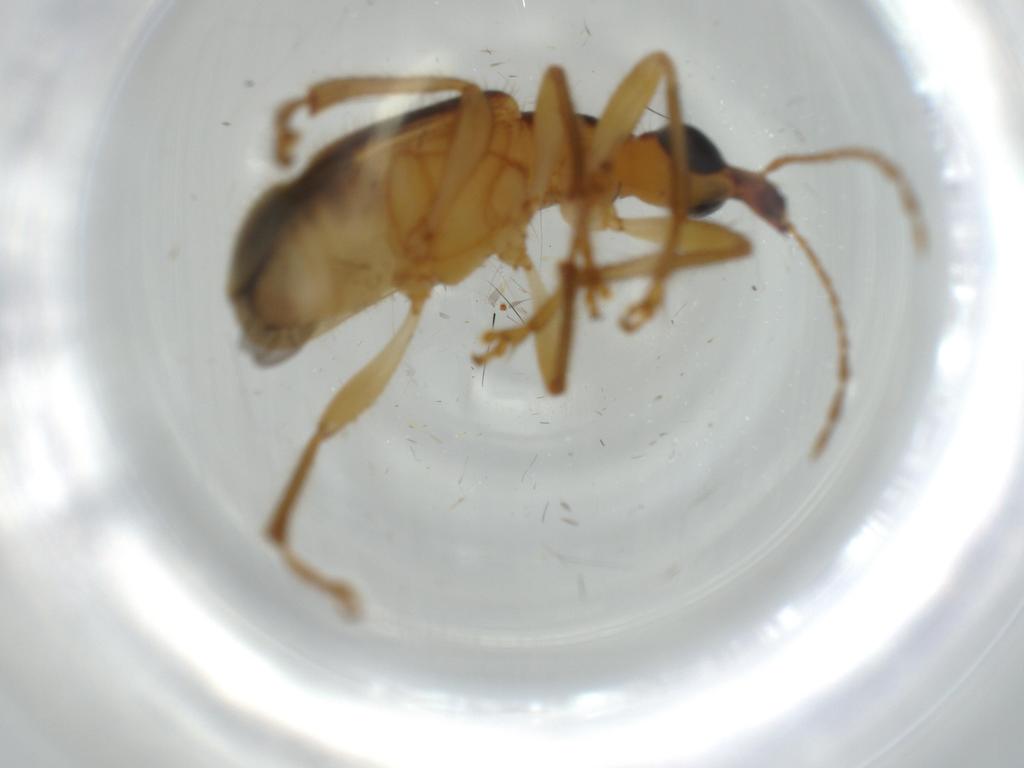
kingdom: Animalia
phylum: Arthropoda
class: Insecta
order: Coleoptera
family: Attelabidae
